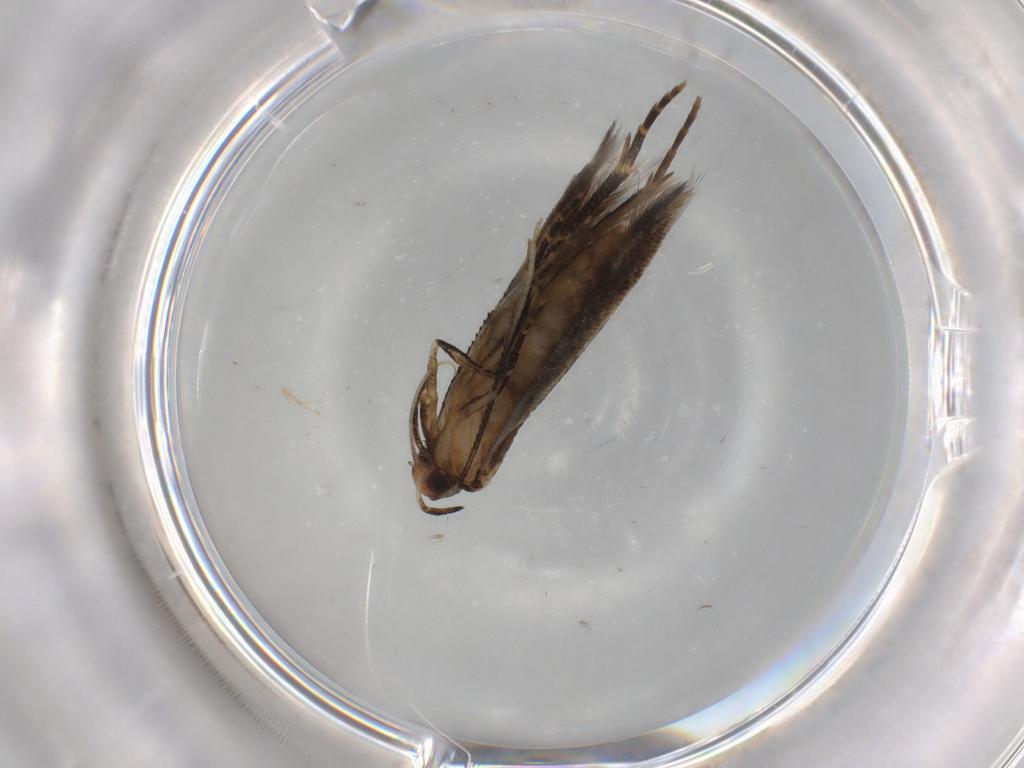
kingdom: Animalia
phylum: Arthropoda
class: Insecta
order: Lepidoptera
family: Cosmopterigidae
